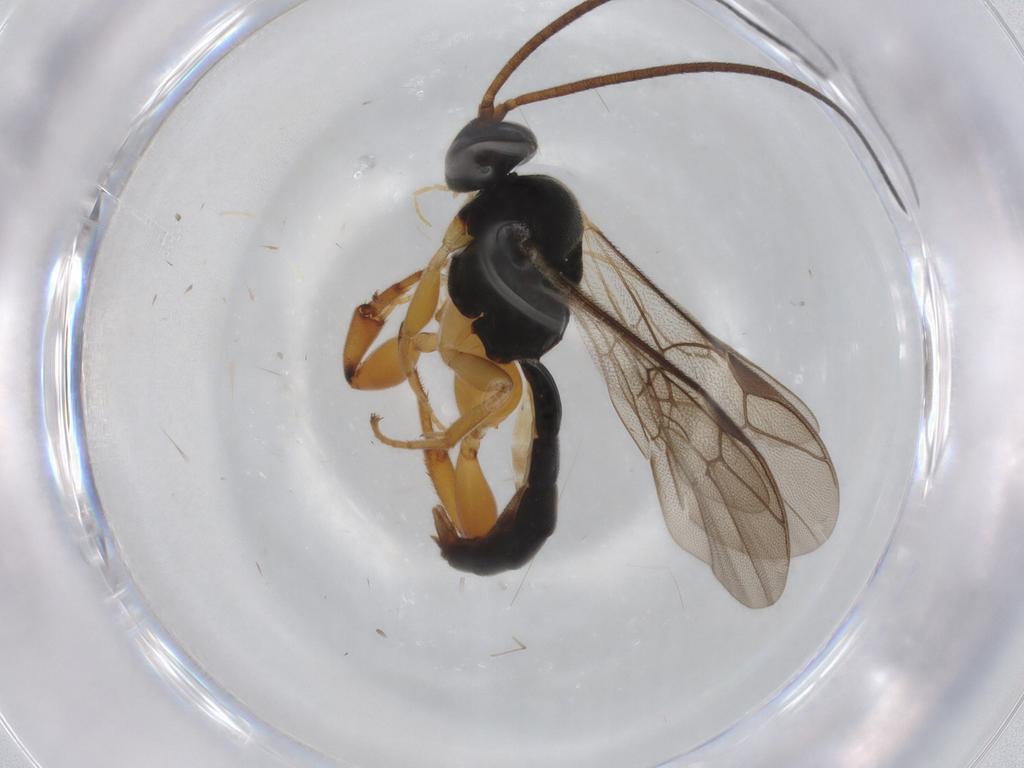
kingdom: Animalia
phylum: Arthropoda
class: Insecta
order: Hymenoptera
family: Ichneumonidae
